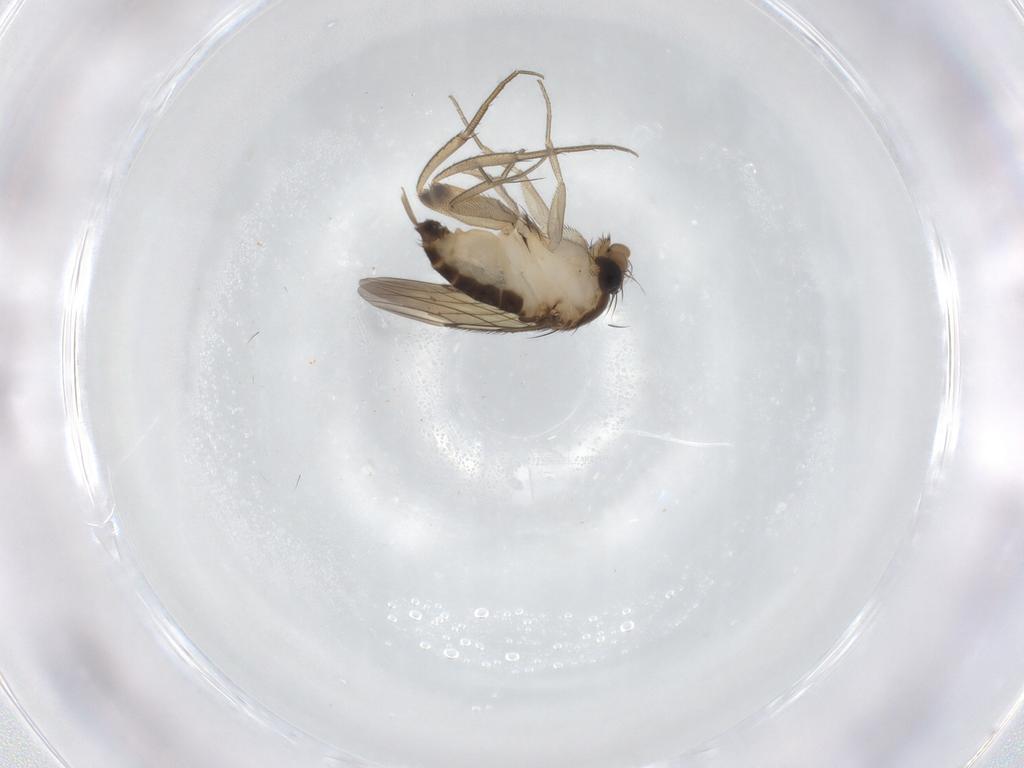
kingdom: Animalia
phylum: Arthropoda
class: Insecta
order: Diptera
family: Phoridae
